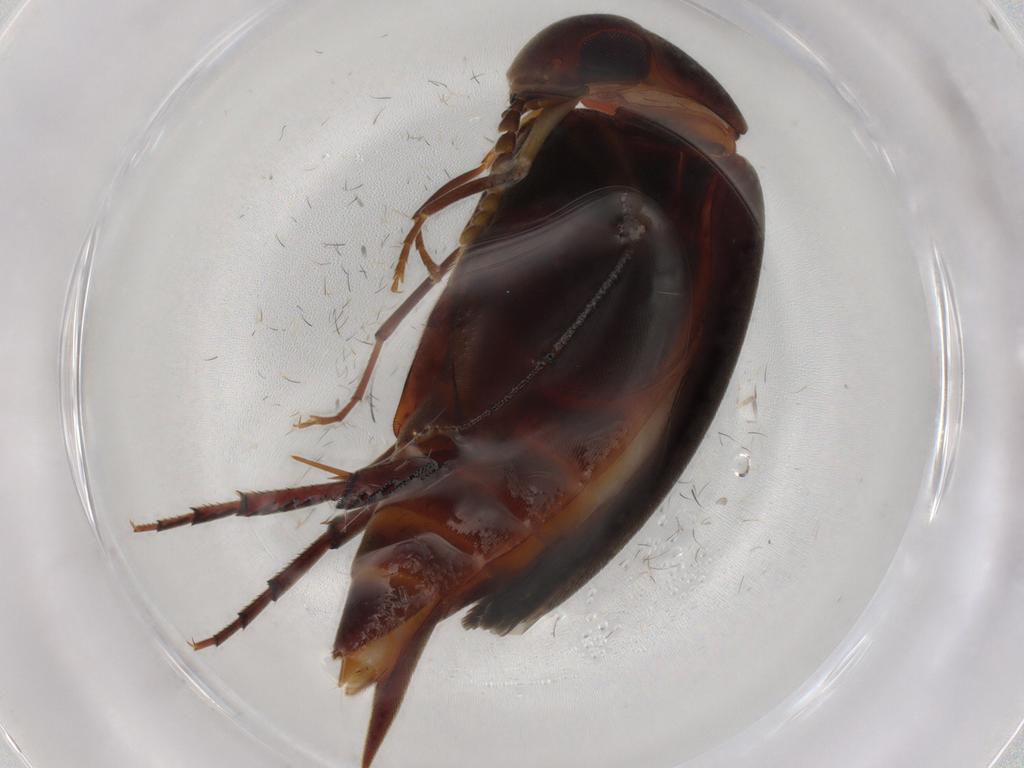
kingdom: Animalia
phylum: Arthropoda
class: Insecta
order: Coleoptera
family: Mordellidae
